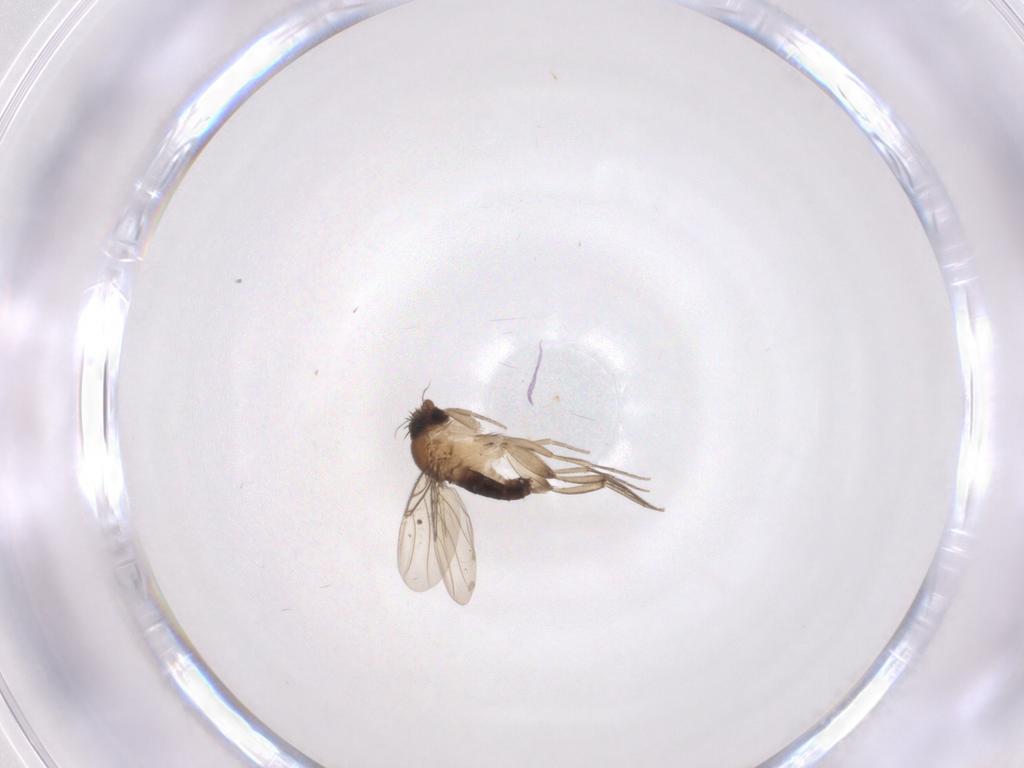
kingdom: Animalia
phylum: Arthropoda
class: Insecta
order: Diptera
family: Phoridae
